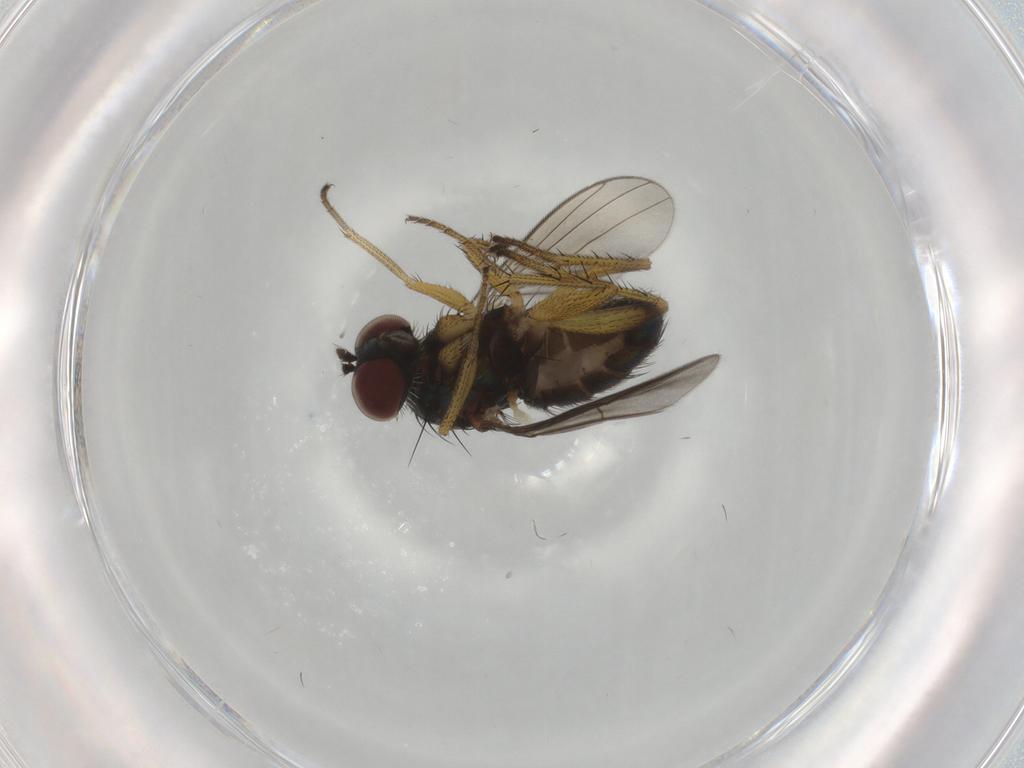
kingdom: Animalia
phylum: Arthropoda
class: Insecta
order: Diptera
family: Dolichopodidae
